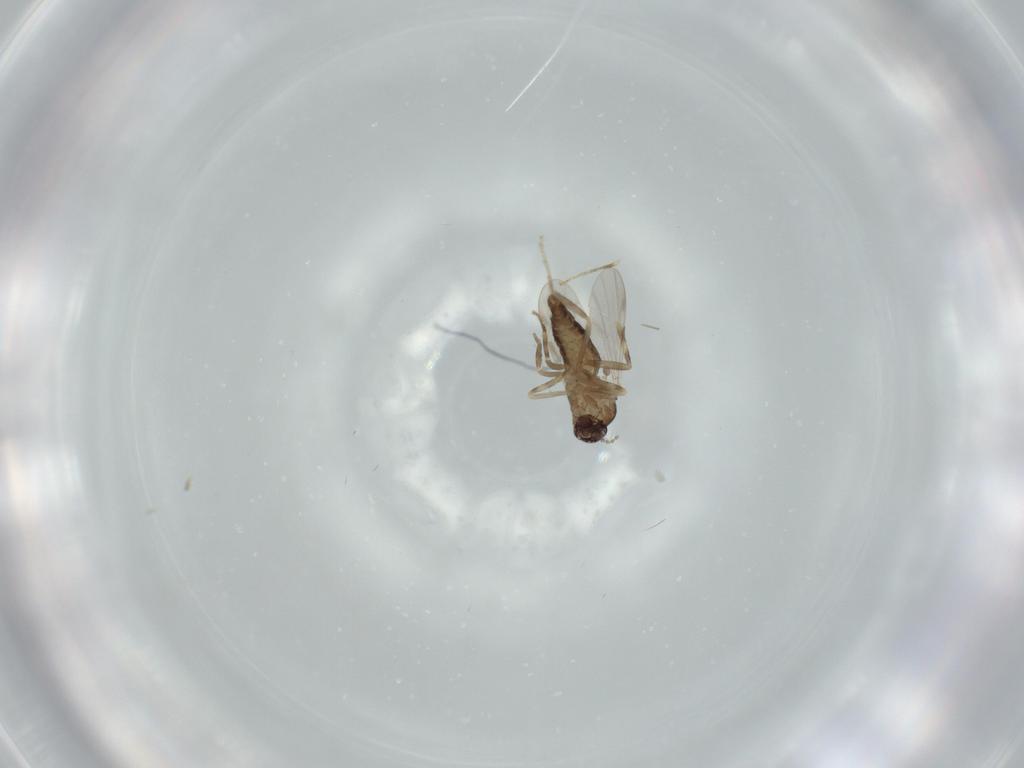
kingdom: Animalia
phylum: Arthropoda
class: Insecta
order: Diptera
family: Ceratopogonidae
